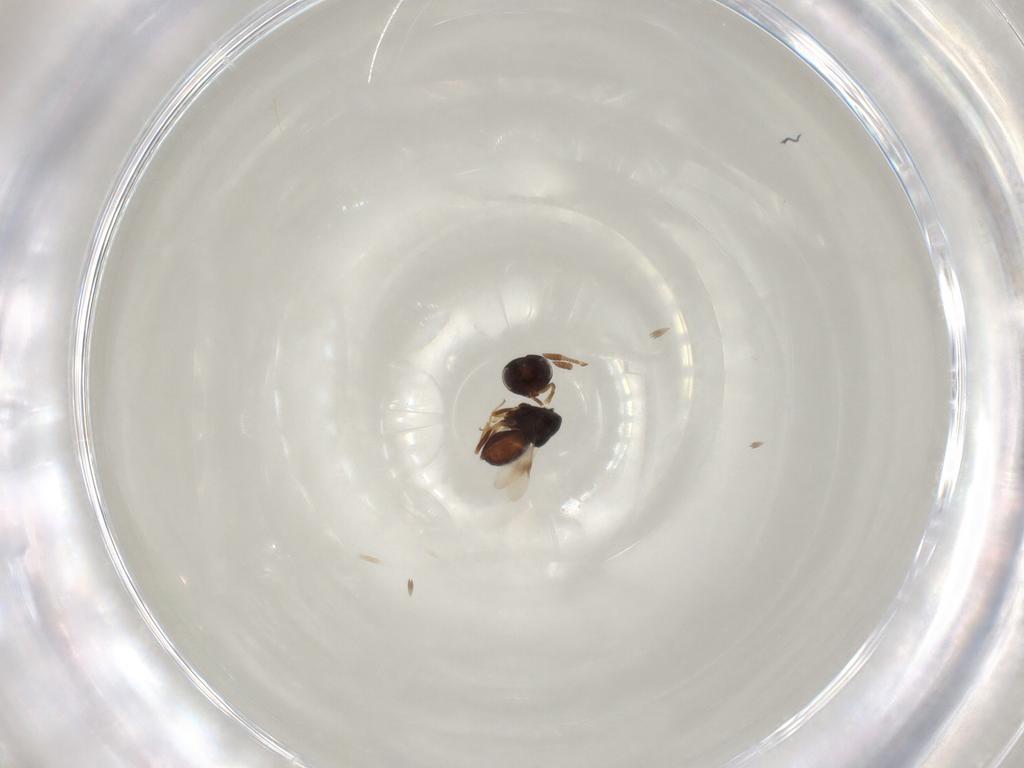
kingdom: Animalia
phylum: Arthropoda
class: Insecta
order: Hymenoptera
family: Scelionidae
